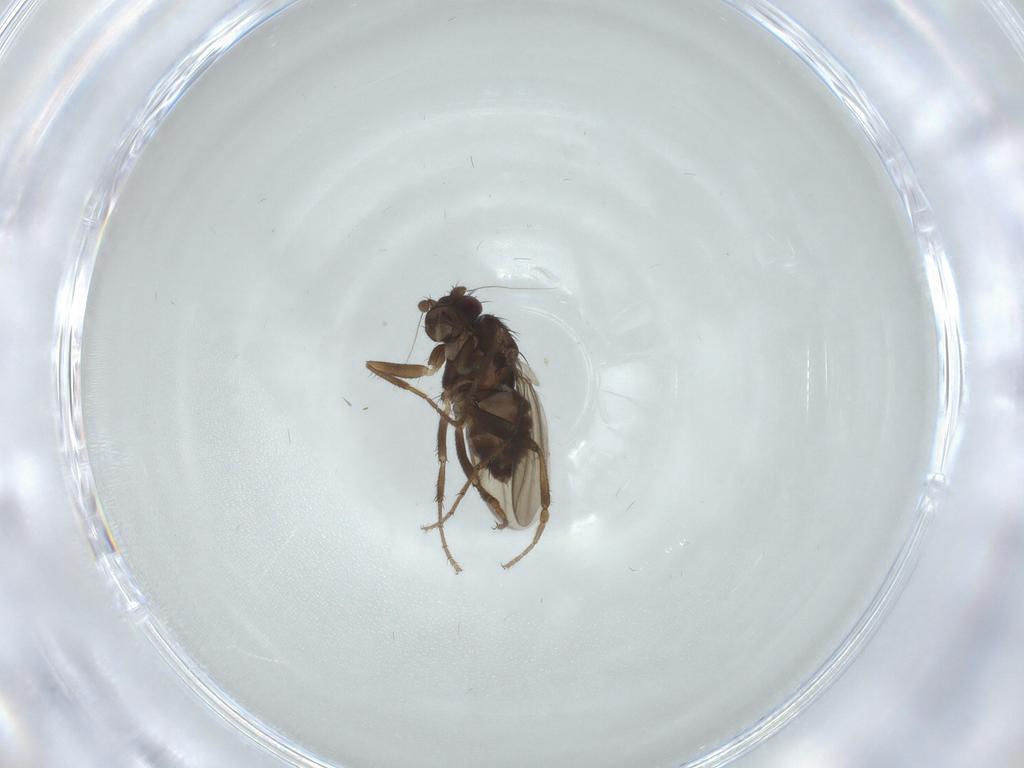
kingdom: Animalia
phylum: Arthropoda
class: Insecta
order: Diptera
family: Sphaeroceridae
